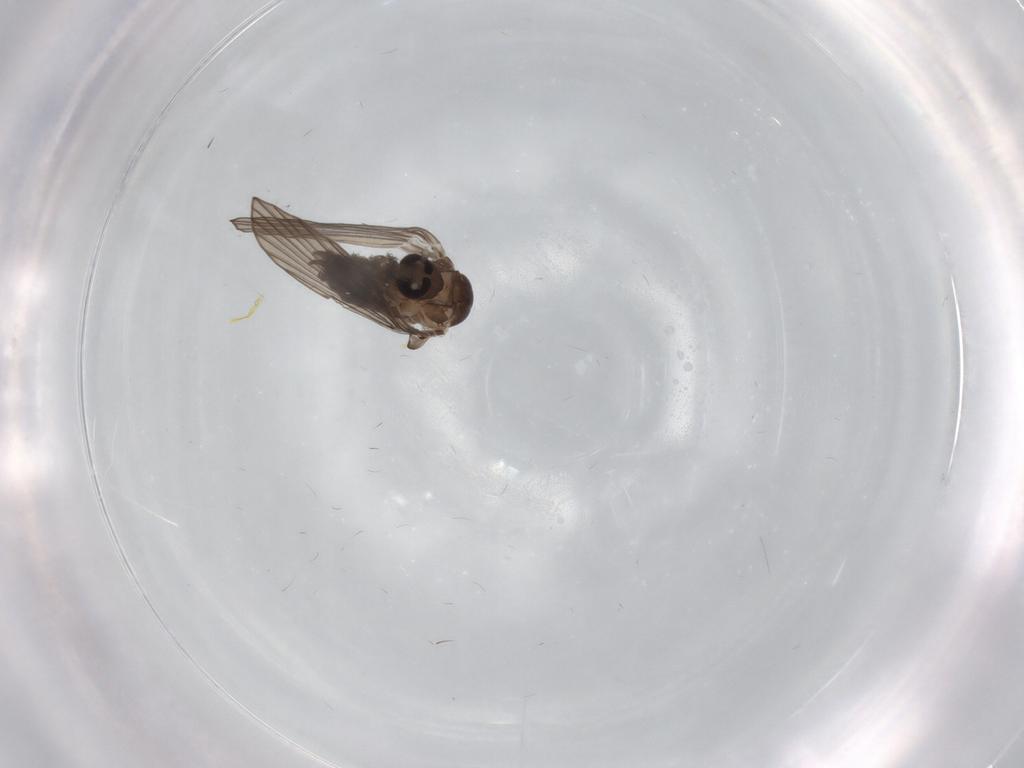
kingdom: Animalia
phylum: Arthropoda
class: Insecta
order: Diptera
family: Psychodidae
